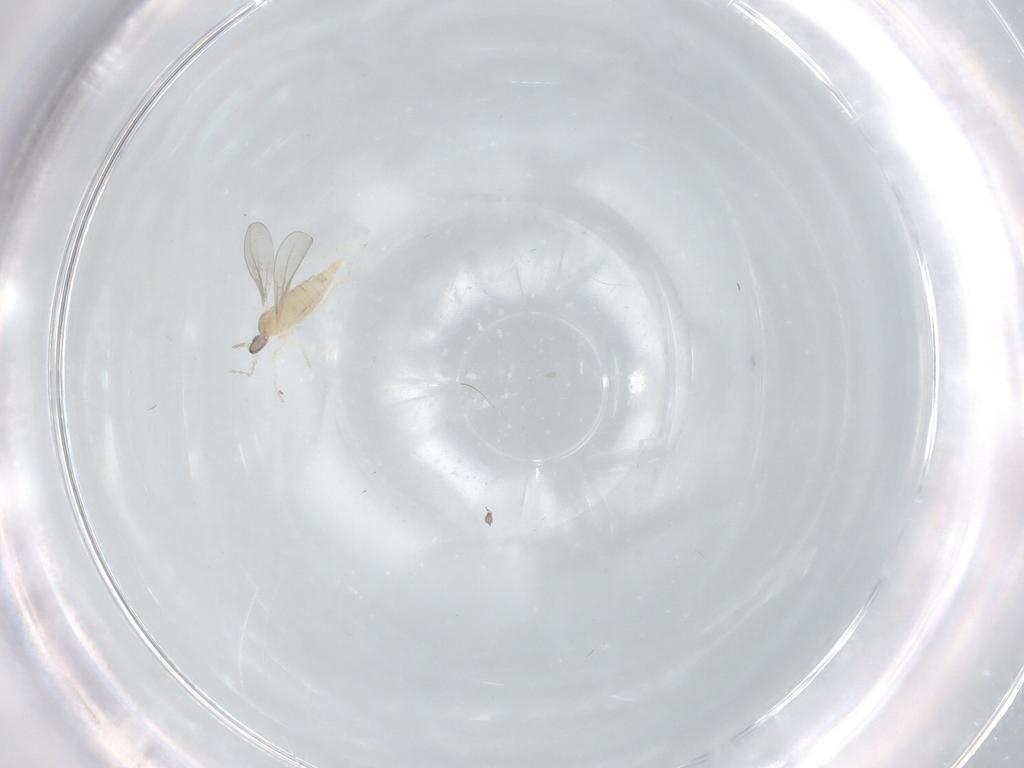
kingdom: Animalia
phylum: Arthropoda
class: Insecta
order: Diptera
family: Cecidomyiidae
